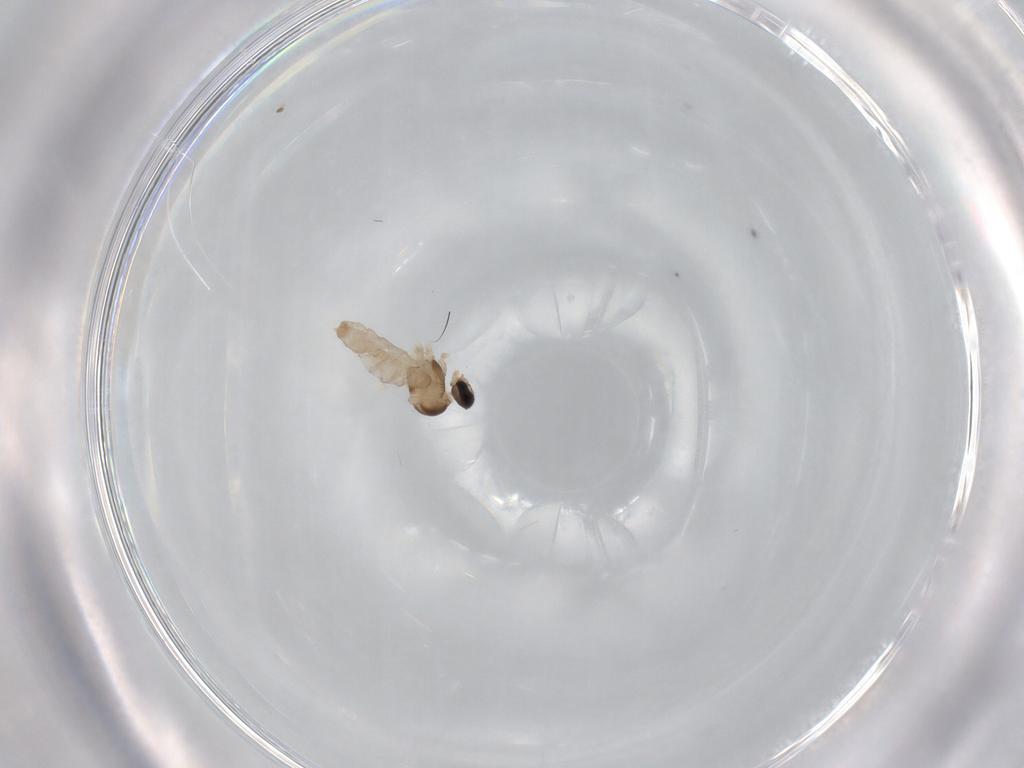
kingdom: Animalia
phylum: Arthropoda
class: Insecta
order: Diptera
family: Cecidomyiidae
